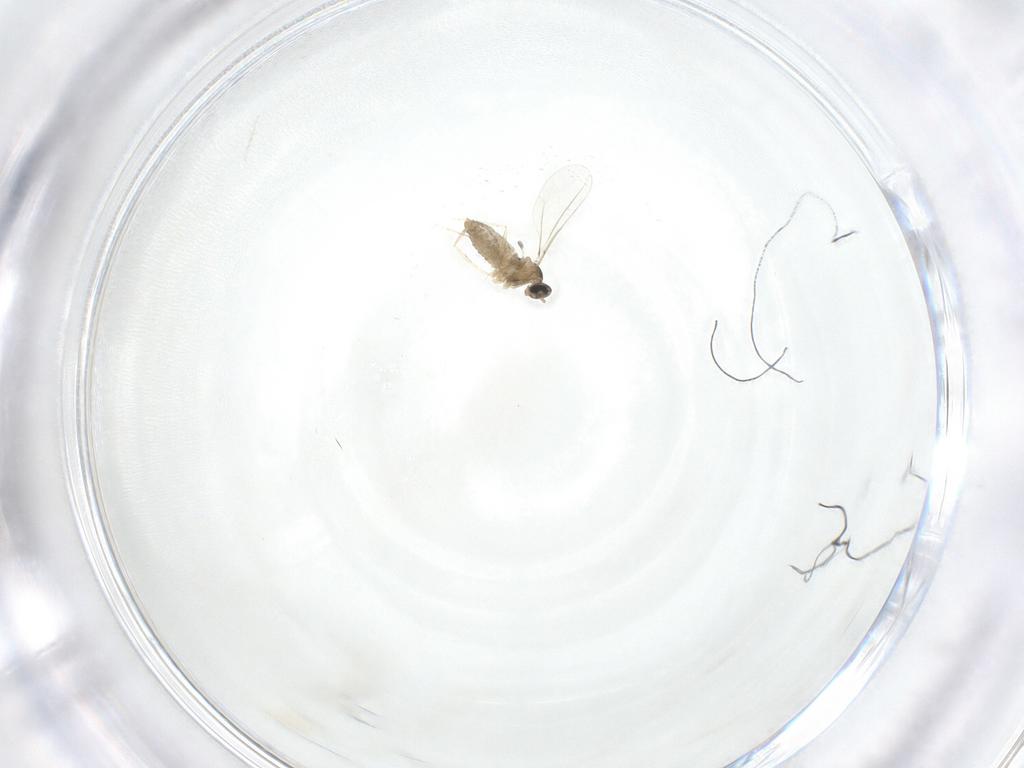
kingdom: Animalia
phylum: Arthropoda
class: Insecta
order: Diptera
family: Cecidomyiidae
